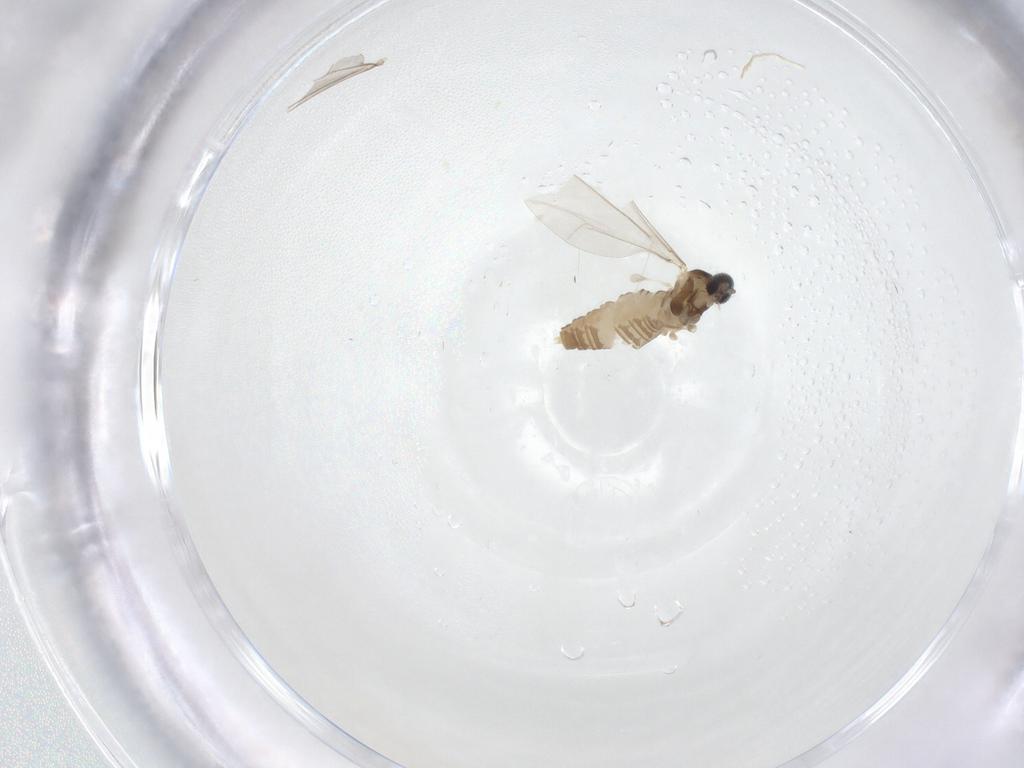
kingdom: Animalia
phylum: Arthropoda
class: Insecta
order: Diptera
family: Cecidomyiidae
